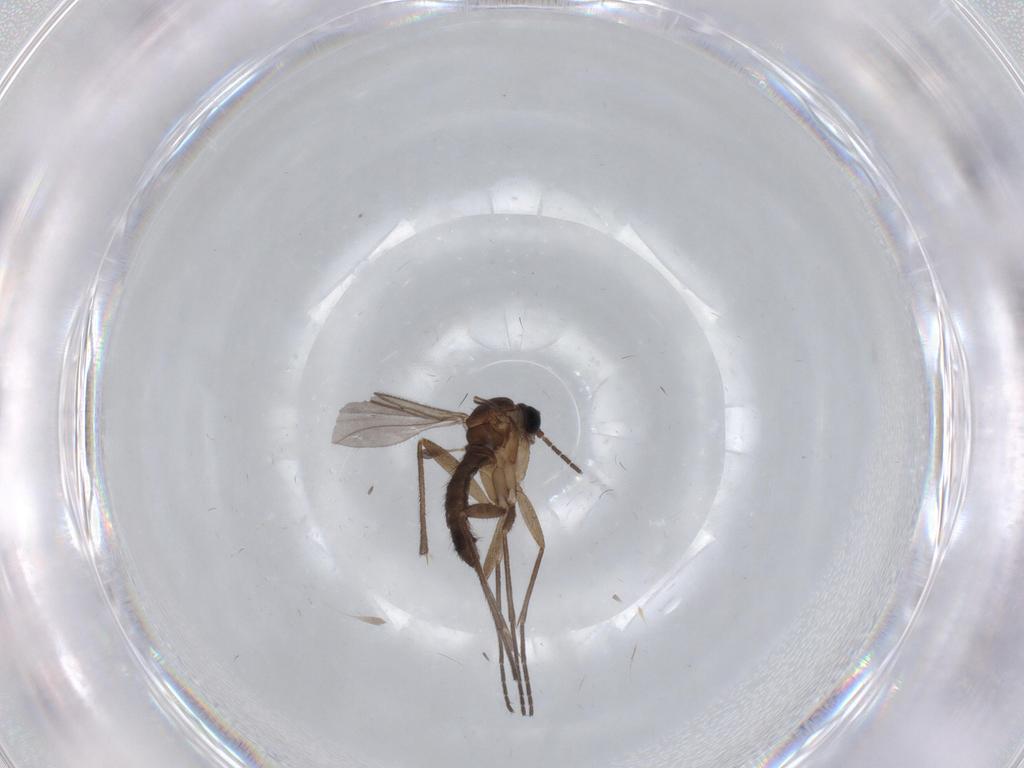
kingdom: Animalia
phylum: Arthropoda
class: Insecta
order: Diptera
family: Sciaridae
